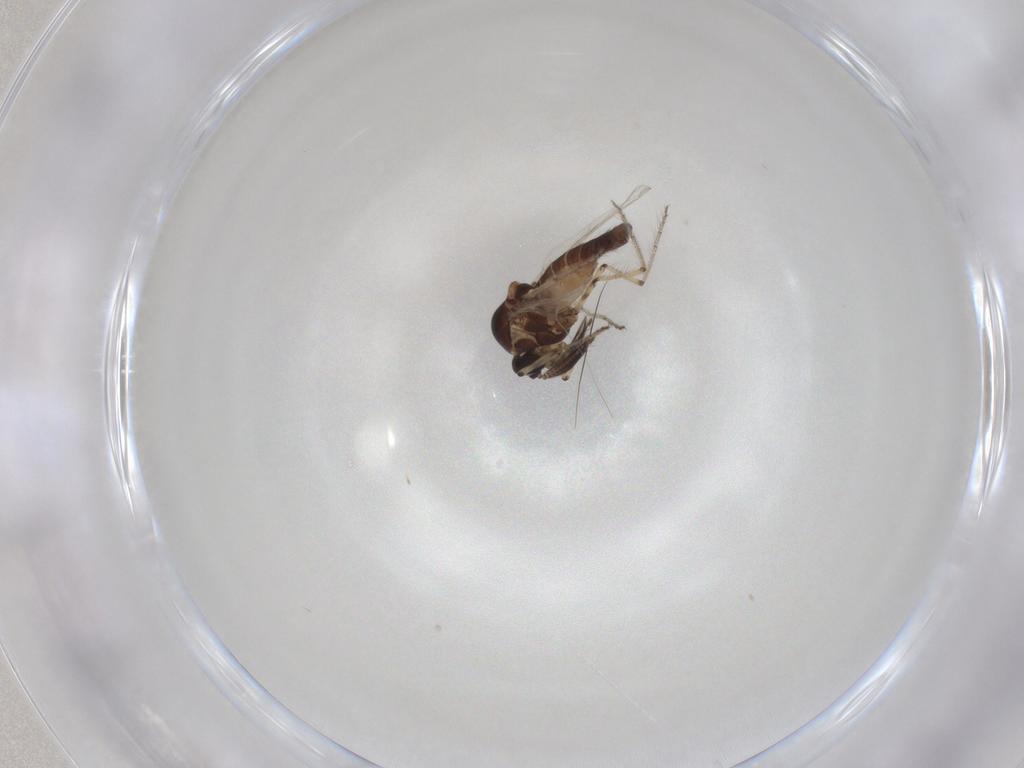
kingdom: Animalia
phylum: Arthropoda
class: Insecta
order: Diptera
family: Ceratopogonidae
